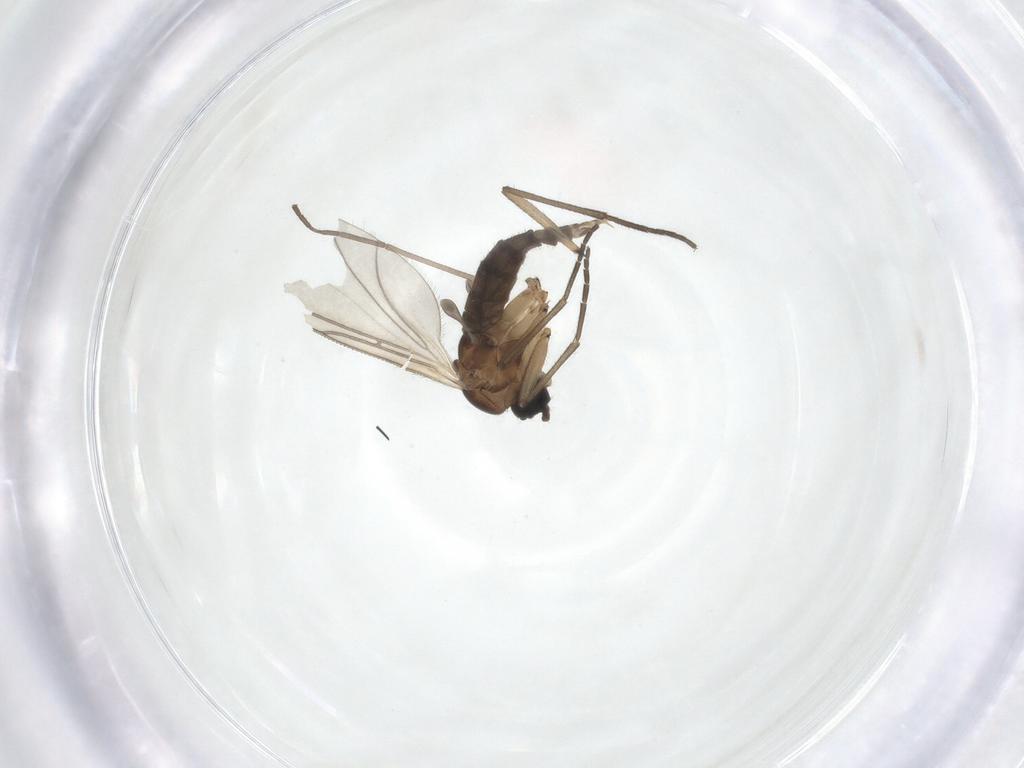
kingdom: Animalia
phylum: Arthropoda
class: Insecta
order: Diptera
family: Sciaridae
